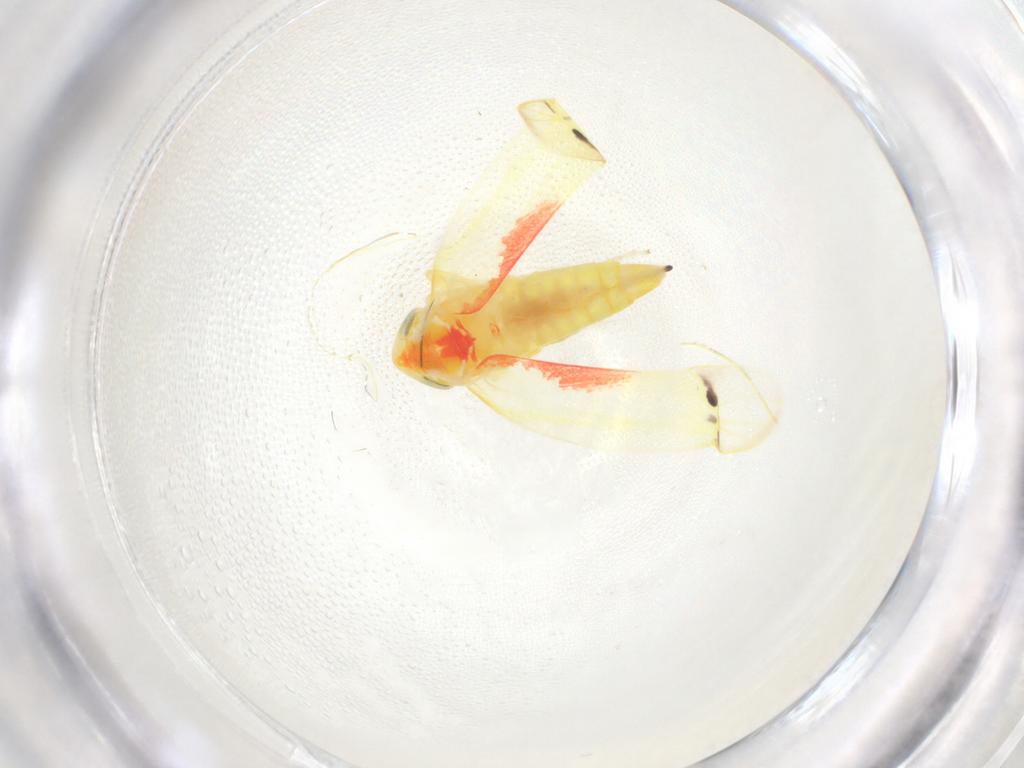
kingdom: Animalia
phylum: Arthropoda
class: Insecta
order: Hemiptera
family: Cicadellidae
